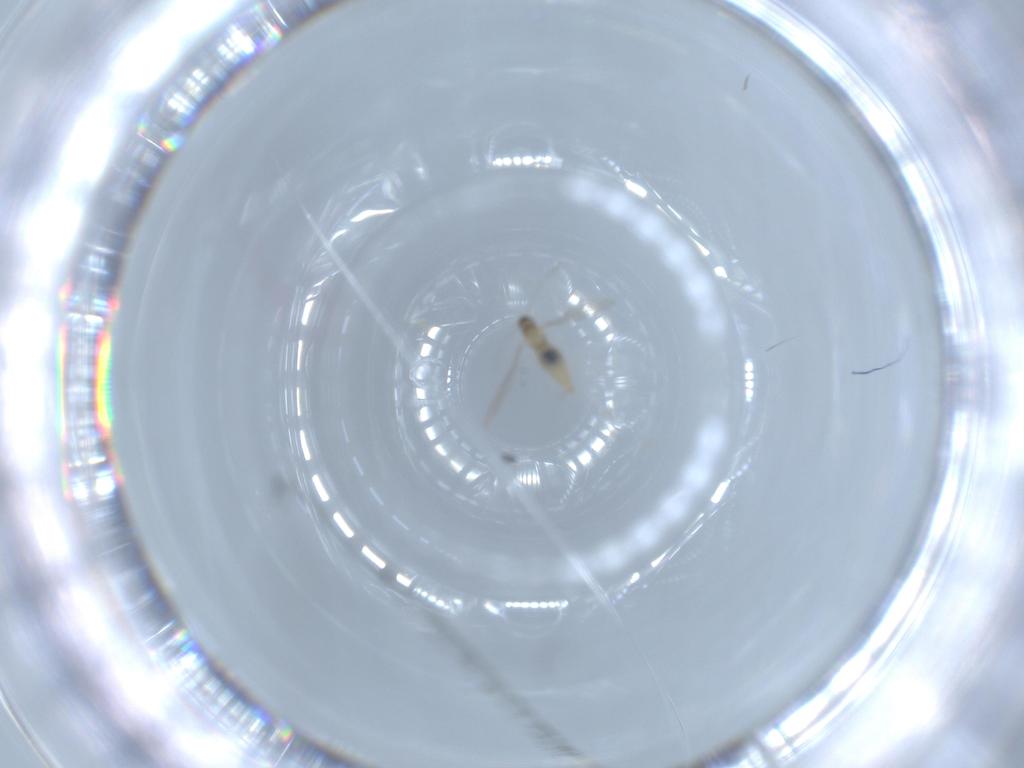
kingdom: Animalia
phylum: Arthropoda
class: Insecta
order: Diptera
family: Cecidomyiidae
